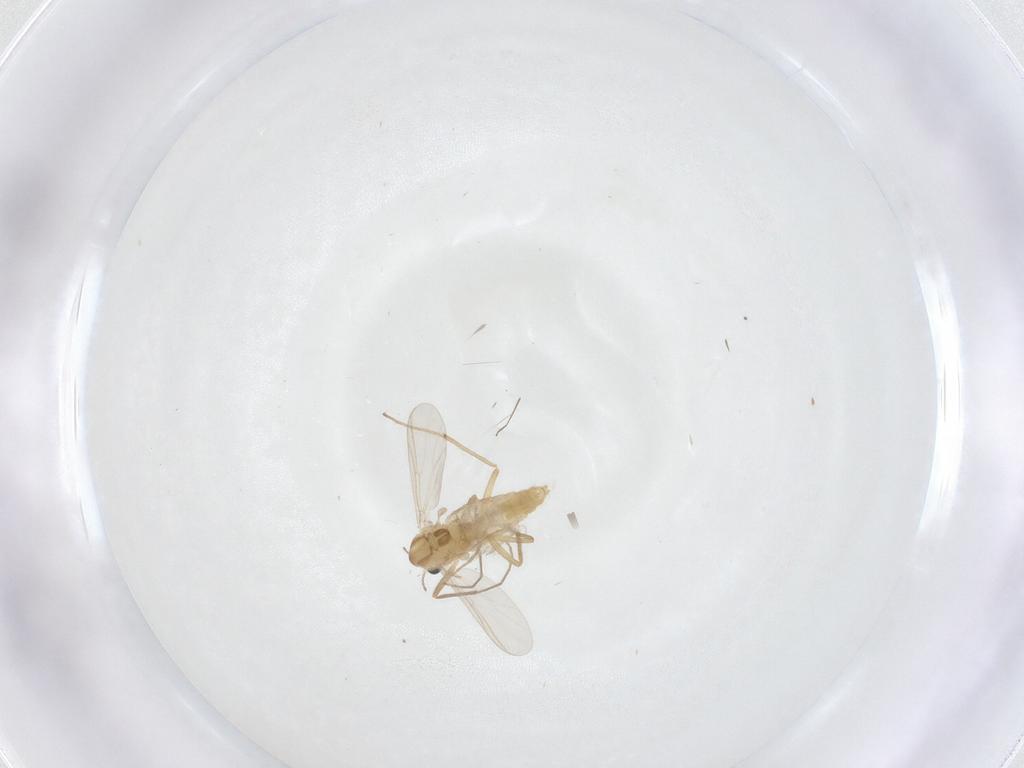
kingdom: Animalia
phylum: Arthropoda
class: Insecta
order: Diptera
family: Chironomidae
